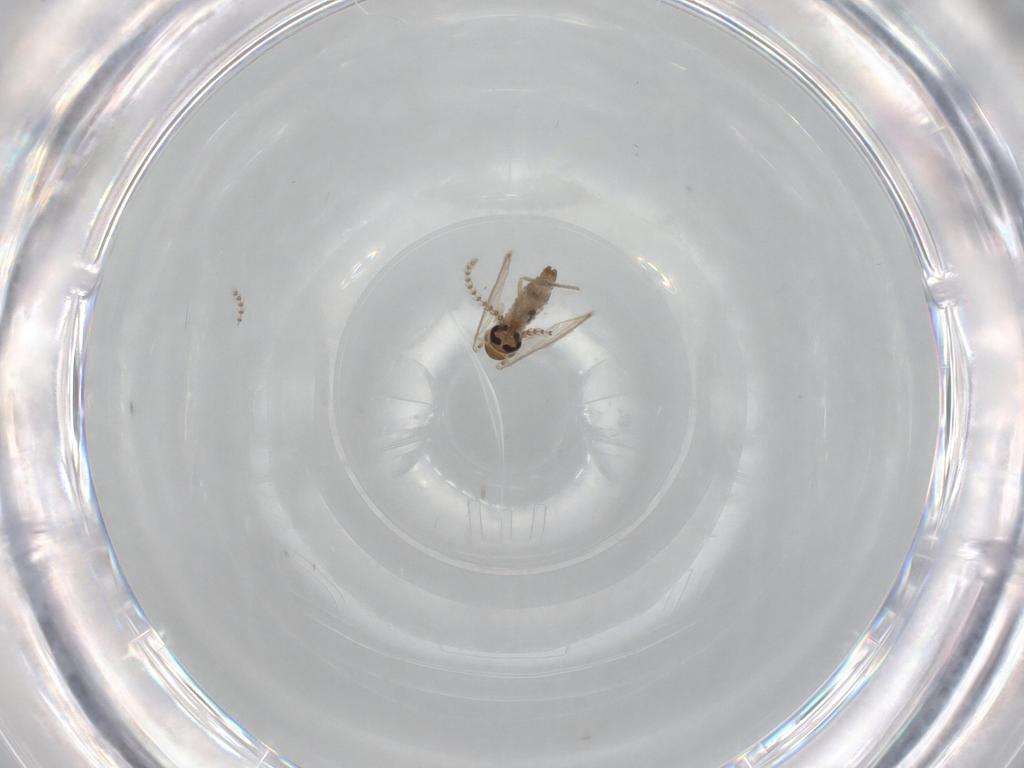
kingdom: Animalia
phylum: Arthropoda
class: Insecta
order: Diptera
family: Psychodidae
